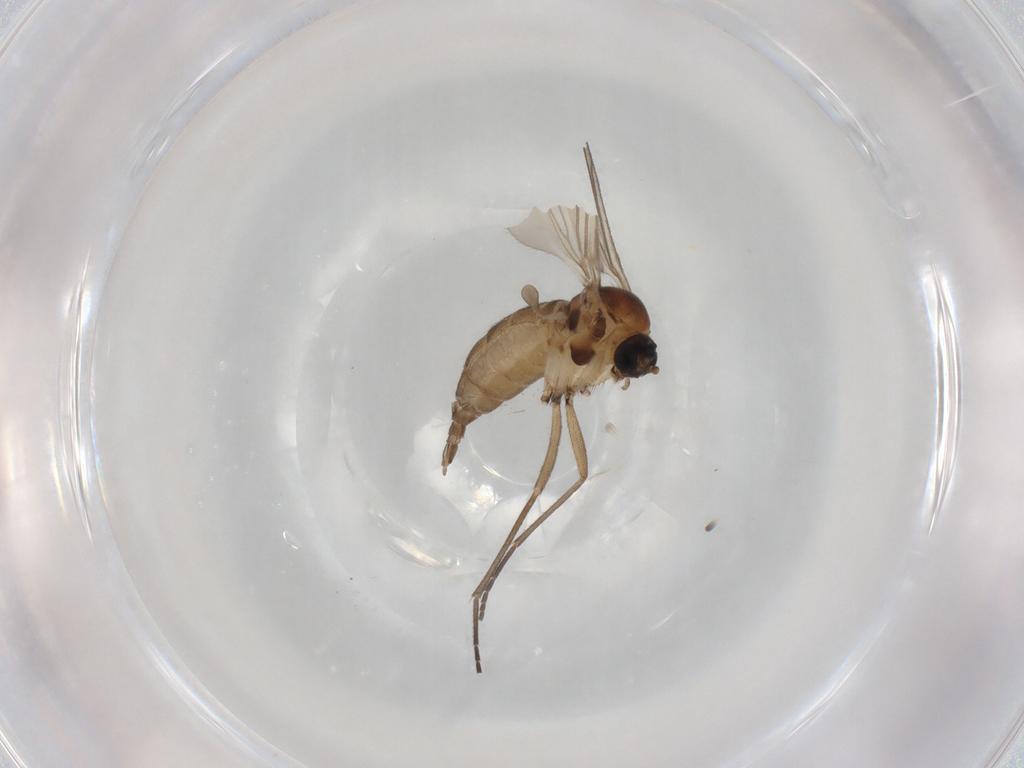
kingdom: Animalia
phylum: Arthropoda
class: Insecta
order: Diptera
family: Sciaridae
